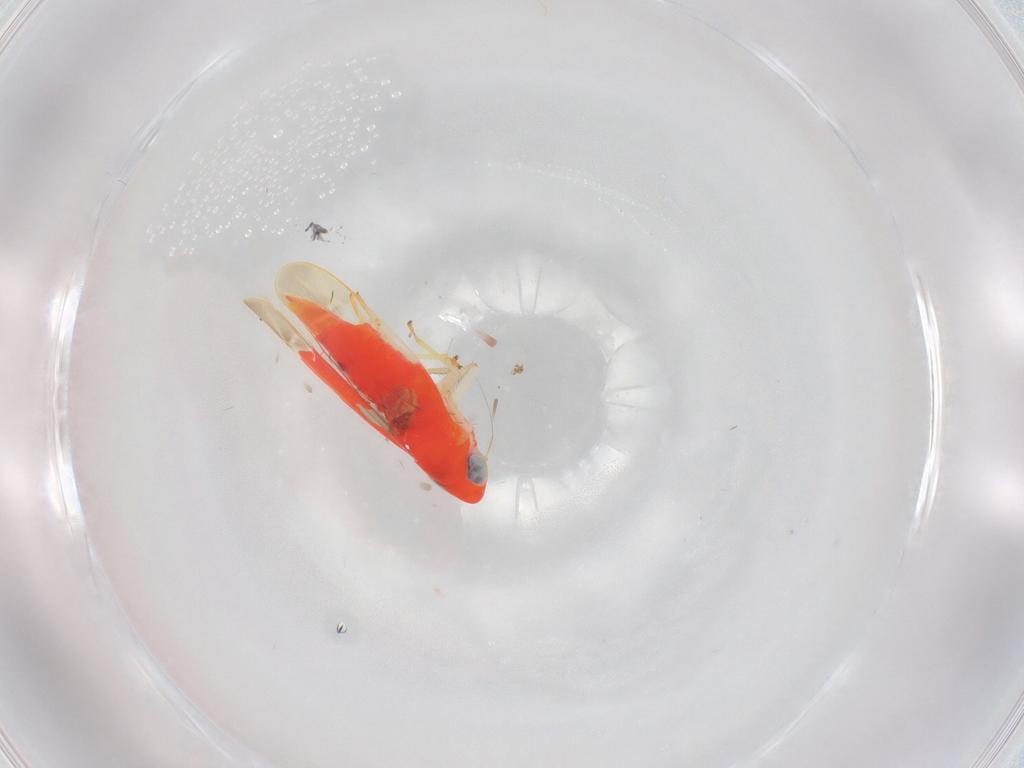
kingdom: Animalia
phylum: Arthropoda
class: Insecta
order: Hemiptera
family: Cicadellidae
